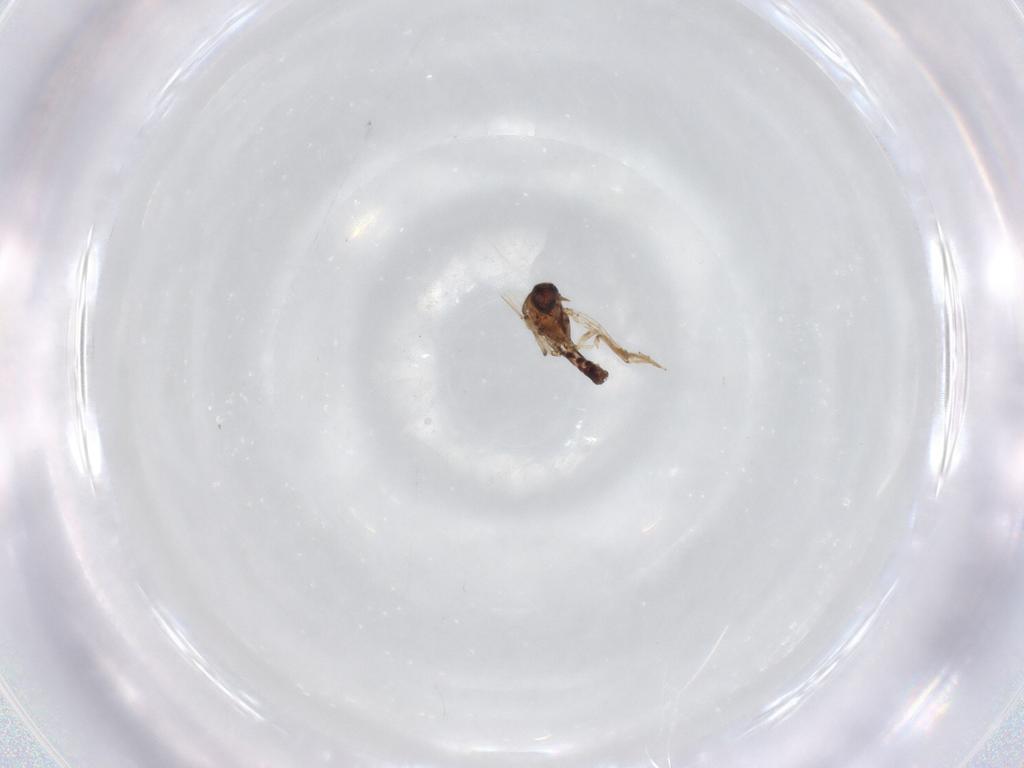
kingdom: Animalia
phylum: Arthropoda
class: Insecta
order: Diptera
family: Ceratopogonidae
